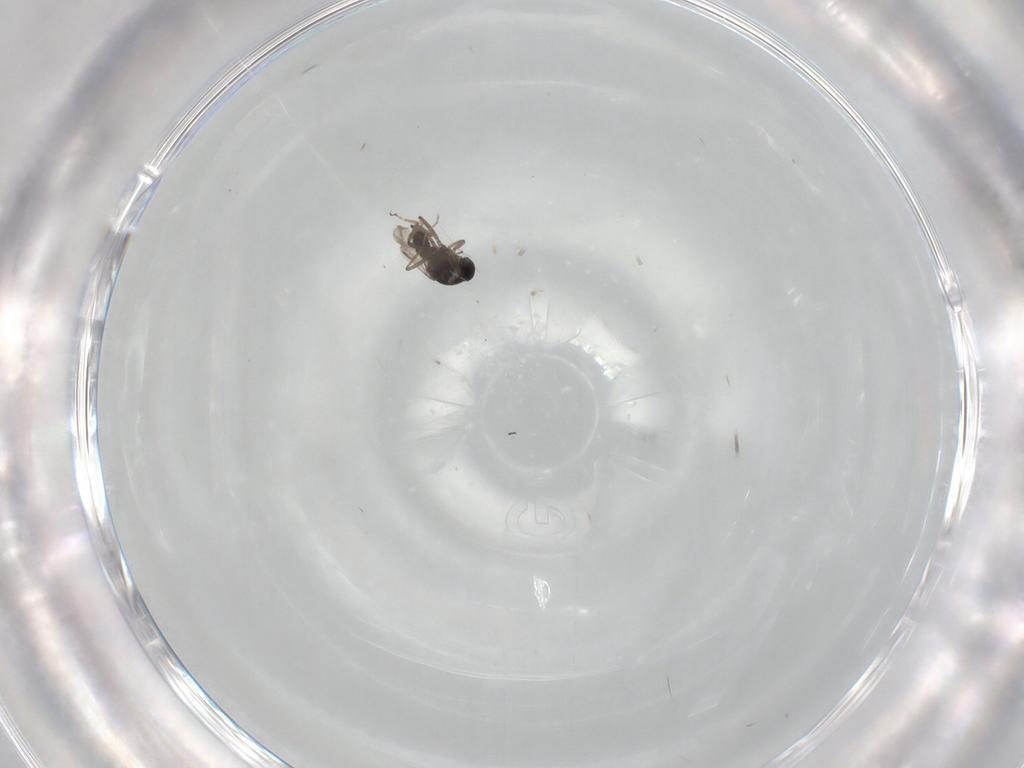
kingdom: Animalia
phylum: Arthropoda
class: Insecta
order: Diptera
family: Ceratopogonidae
